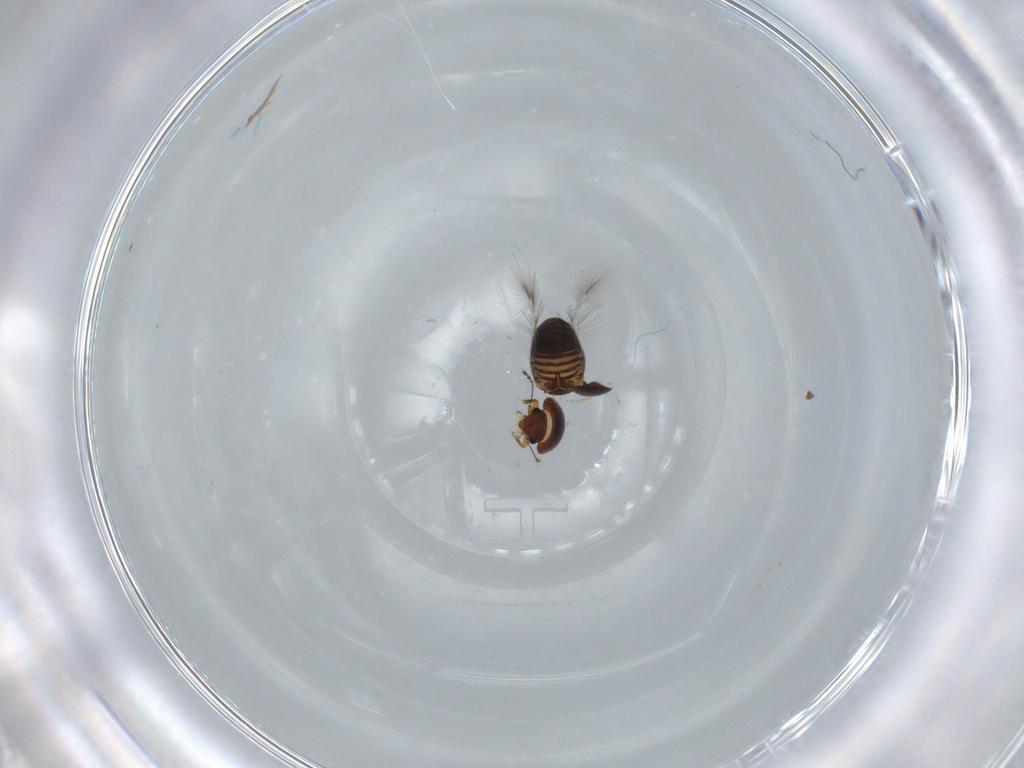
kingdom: Animalia
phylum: Arthropoda
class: Insecta
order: Coleoptera
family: Ptiliidae
